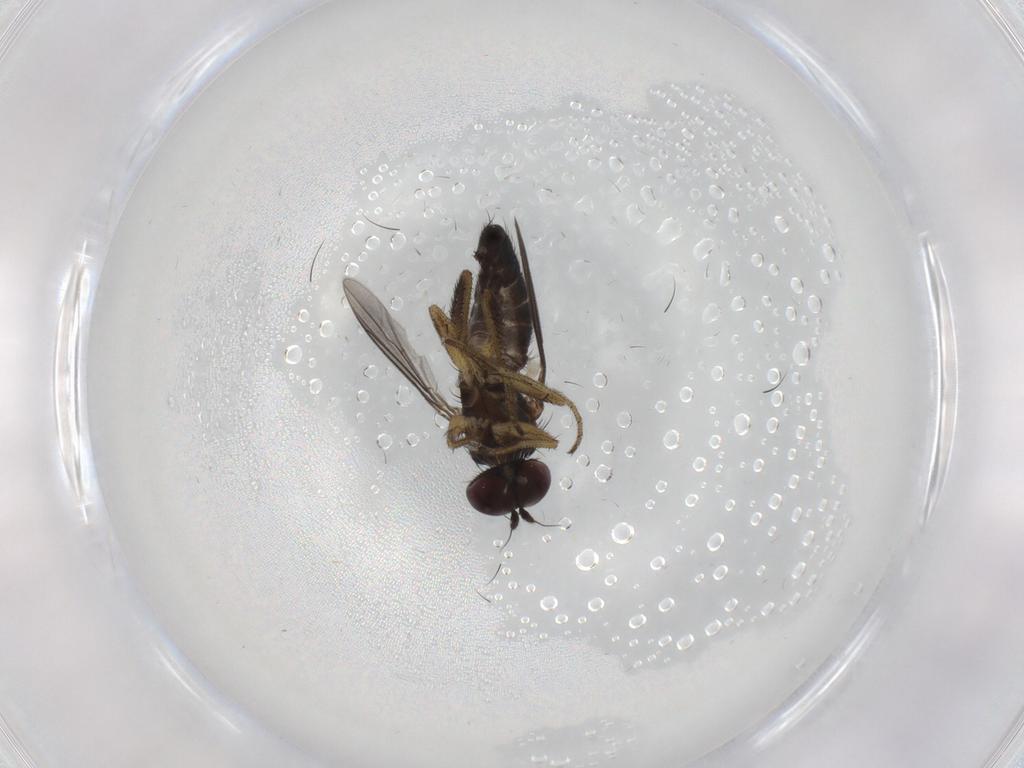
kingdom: Animalia
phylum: Arthropoda
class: Insecta
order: Diptera
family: Dolichopodidae
